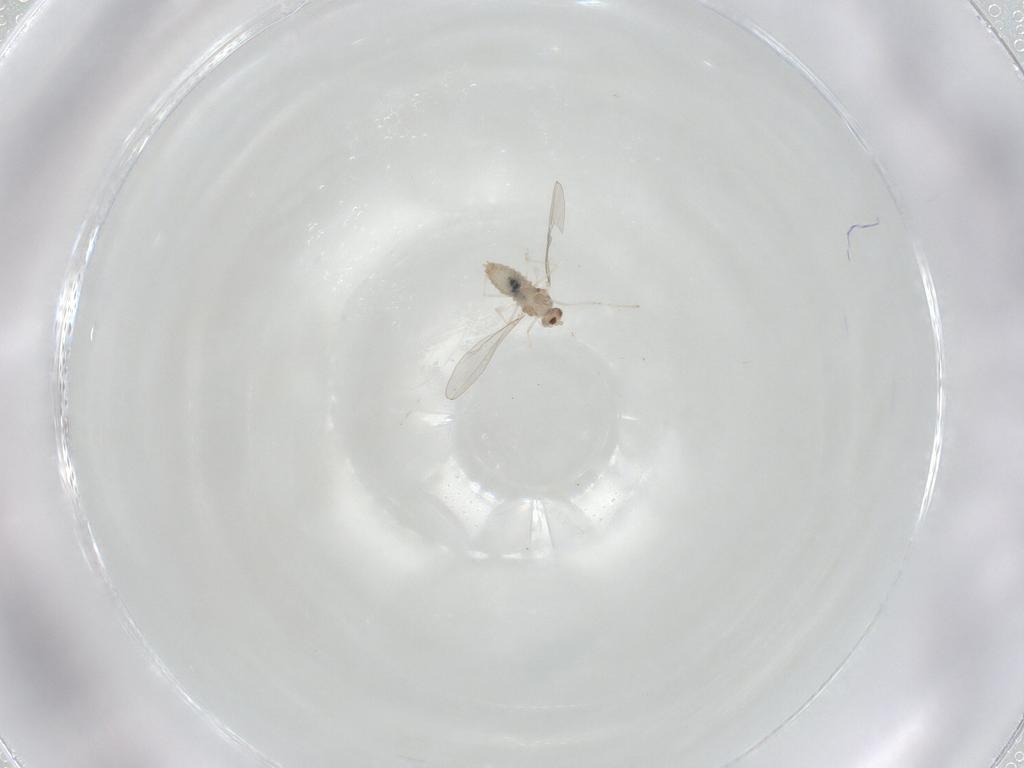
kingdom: Animalia
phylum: Arthropoda
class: Insecta
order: Diptera
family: Cecidomyiidae
